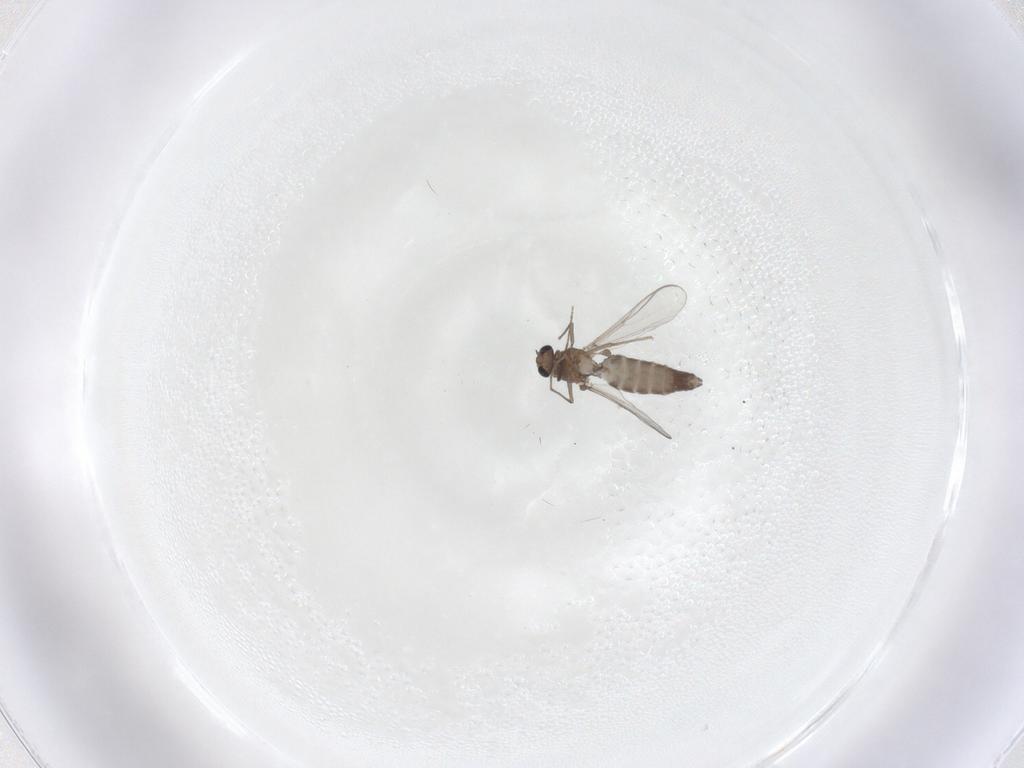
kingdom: Animalia
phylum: Arthropoda
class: Insecta
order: Diptera
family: Chironomidae
